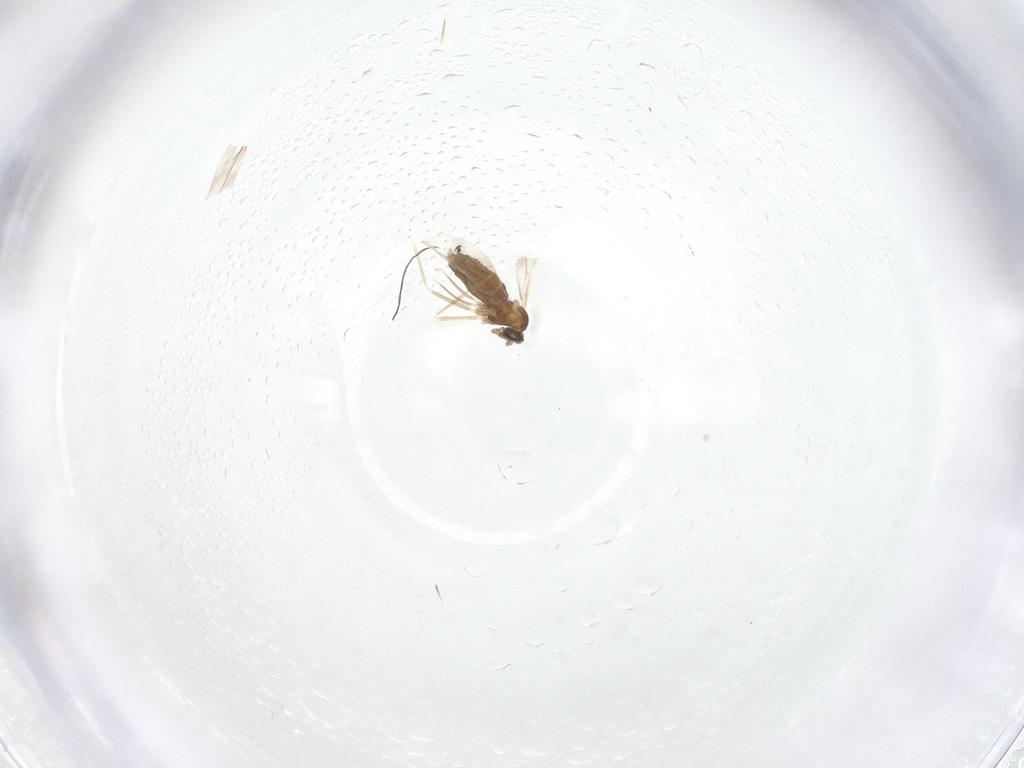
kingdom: Animalia
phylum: Arthropoda
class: Insecta
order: Diptera
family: Cecidomyiidae
